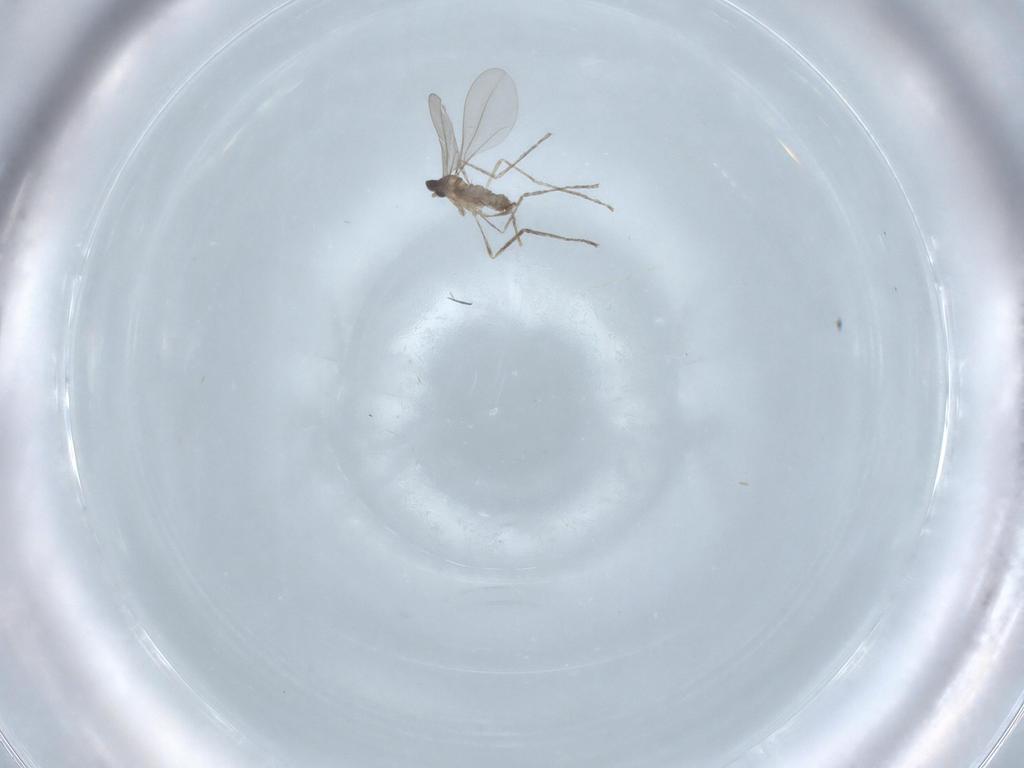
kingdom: Animalia
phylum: Arthropoda
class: Insecta
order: Diptera
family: Cecidomyiidae
